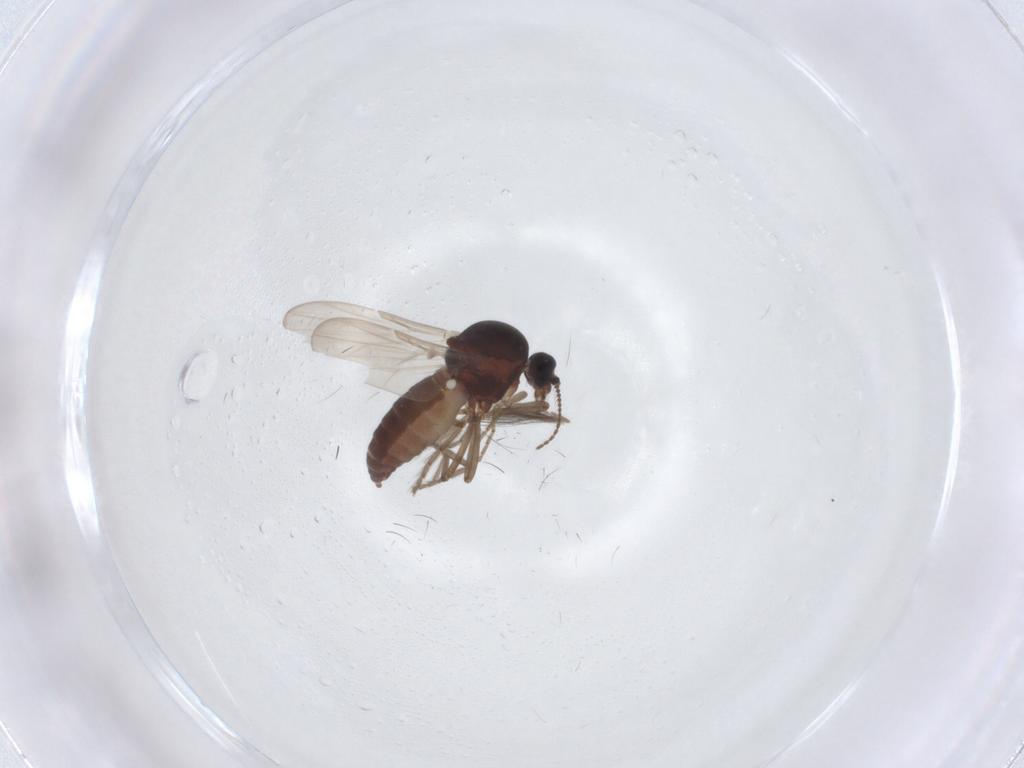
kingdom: Animalia
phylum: Arthropoda
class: Insecta
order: Diptera
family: Ceratopogonidae
